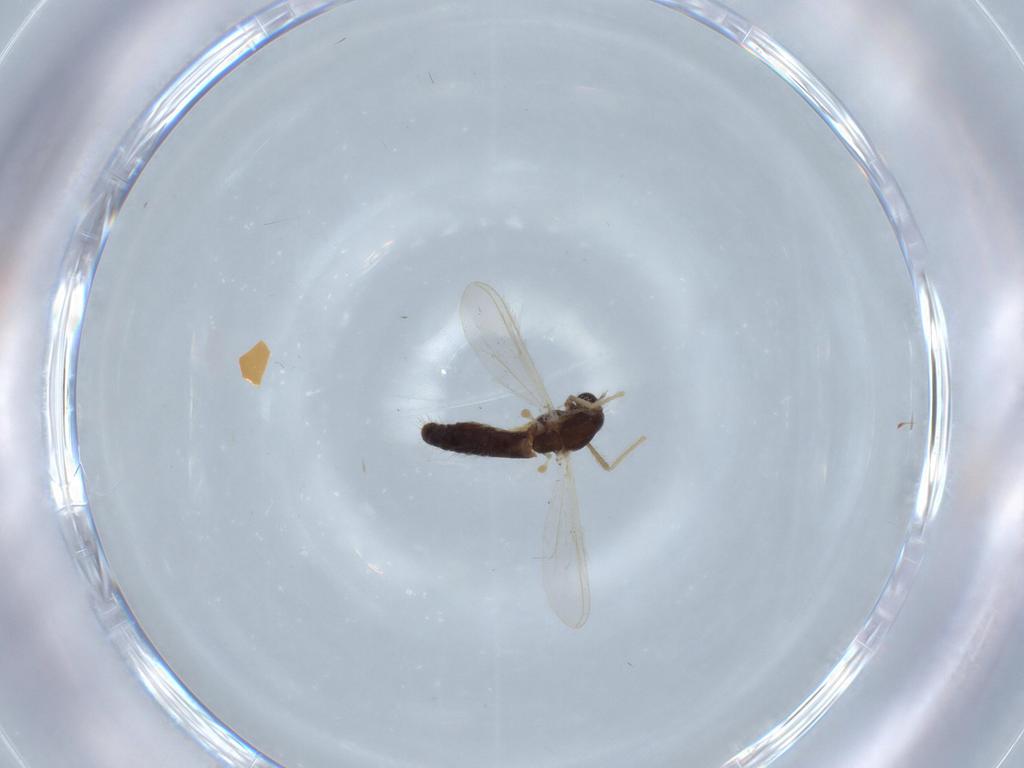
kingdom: Animalia
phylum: Arthropoda
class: Insecta
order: Diptera
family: Chironomidae
